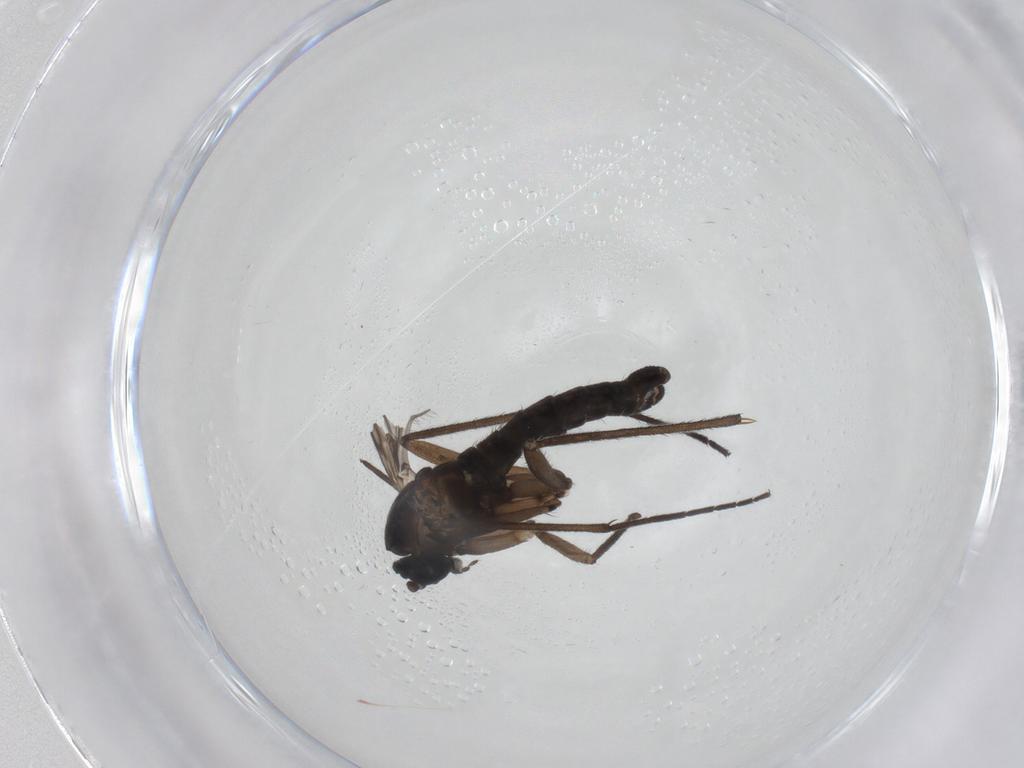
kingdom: Animalia
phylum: Arthropoda
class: Insecta
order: Diptera
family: Sciaridae
